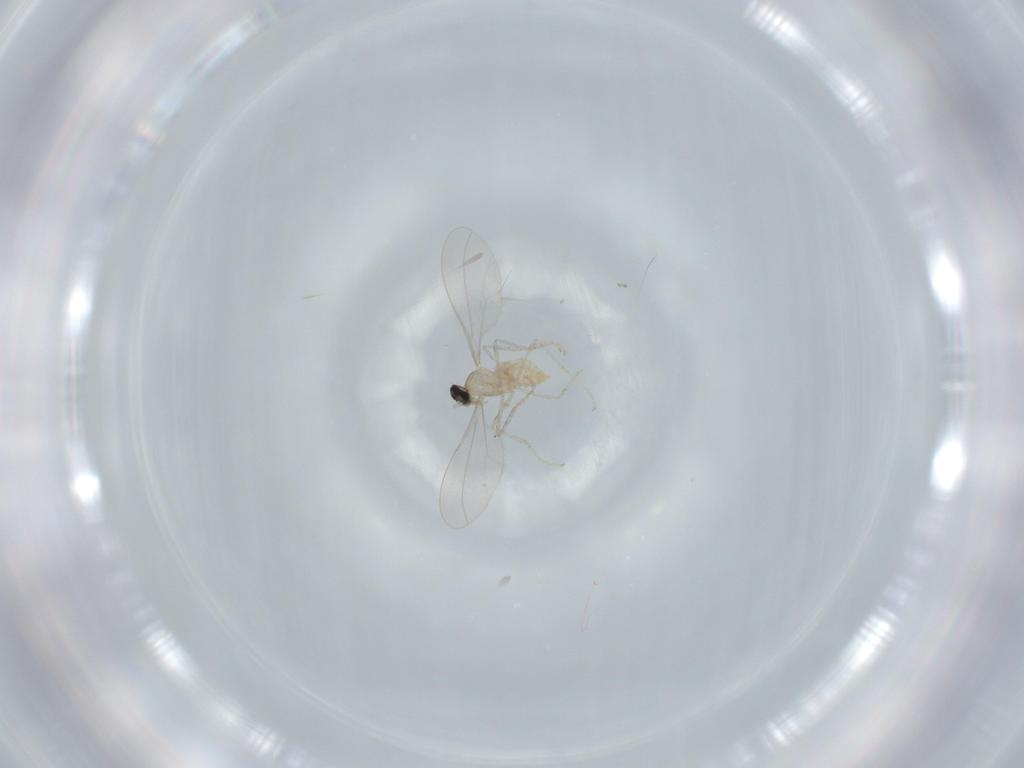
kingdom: Animalia
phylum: Arthropoda
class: Insecta
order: Diptera
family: Cecidomyiidae
